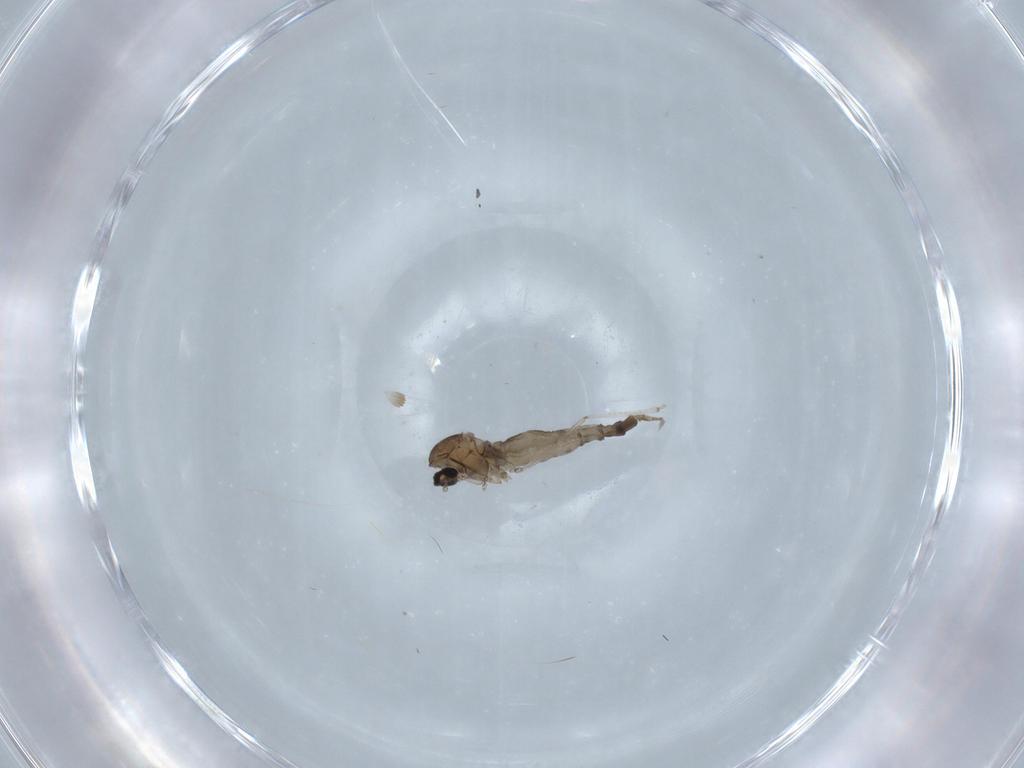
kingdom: Animalia
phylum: Arthropoda
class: Insecta
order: Diptera
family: Cecidomyiidae
